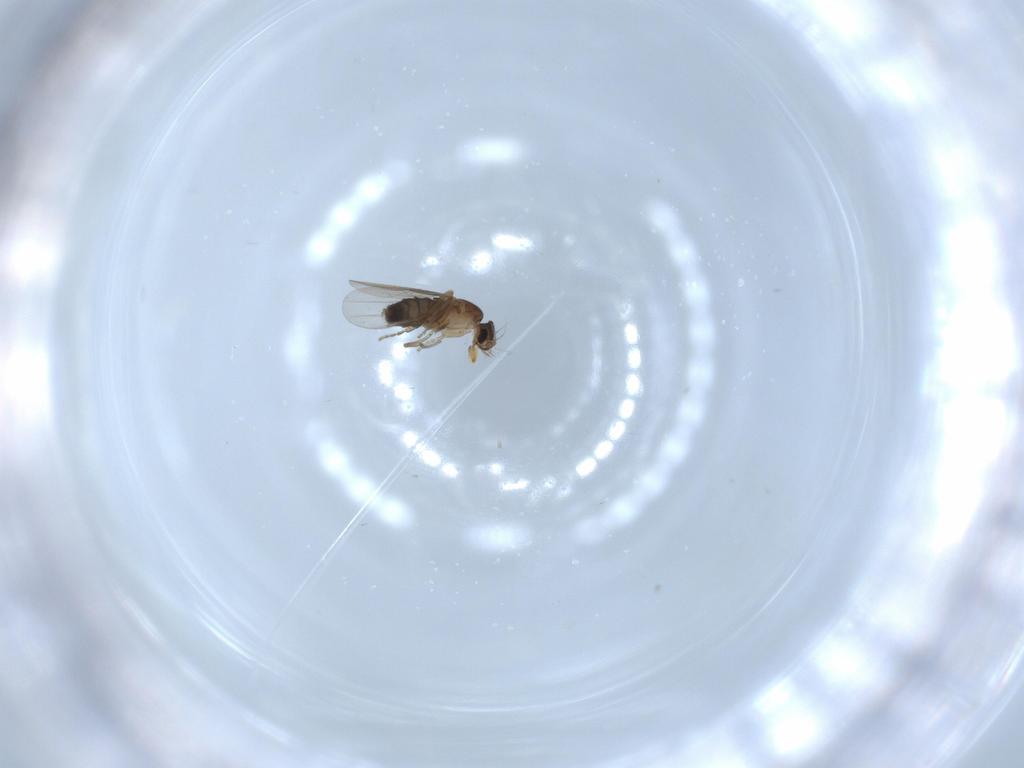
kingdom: Animalia
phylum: Arthropoda
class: Insecta
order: Diptera
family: Phoridae
